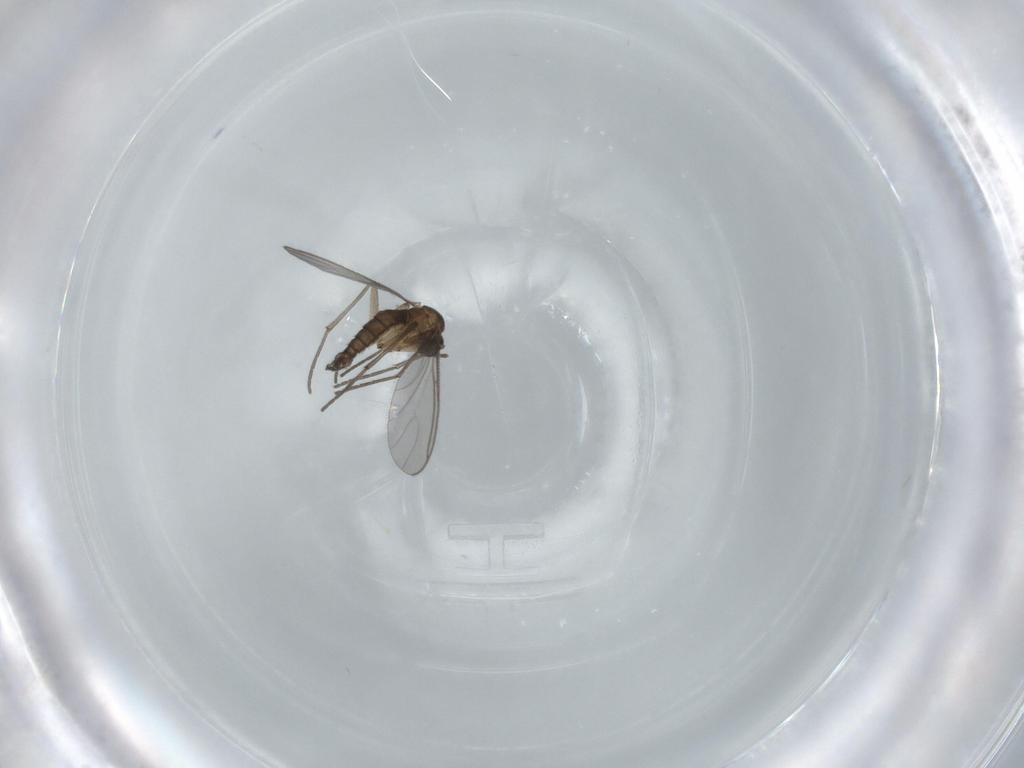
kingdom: Animalia
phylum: Arthropoda
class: Insecta
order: Diptera
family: Sciaridae
